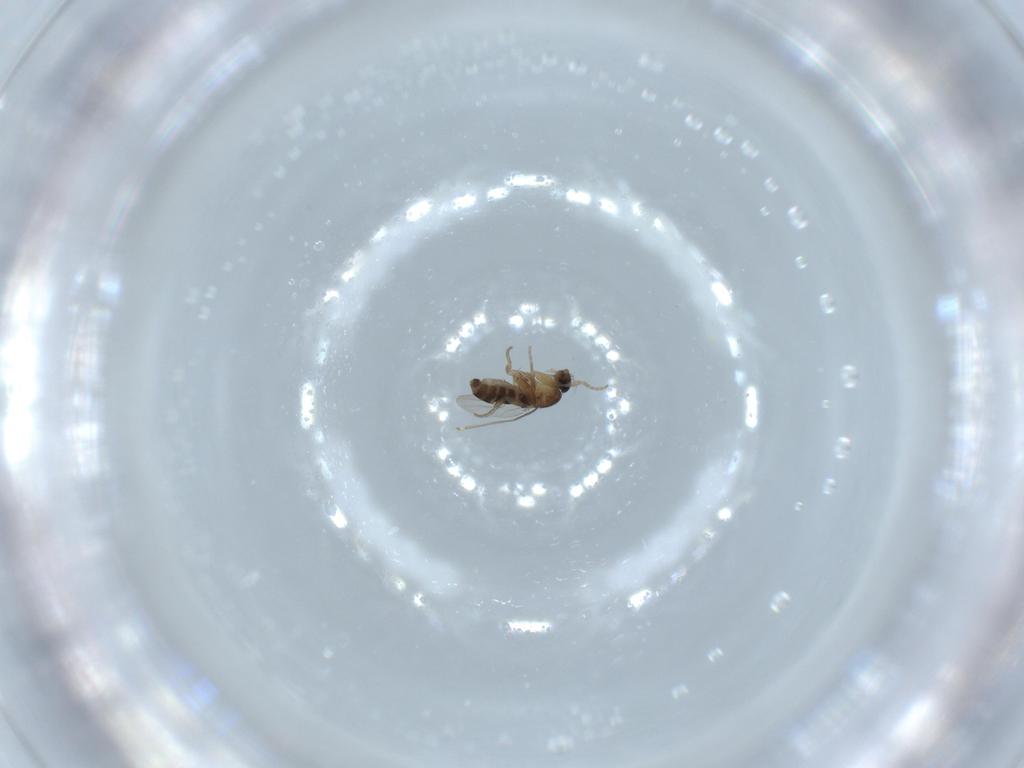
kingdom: Animalia
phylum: Arthropoda
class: Insecta
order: Diptera
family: Phoridae
